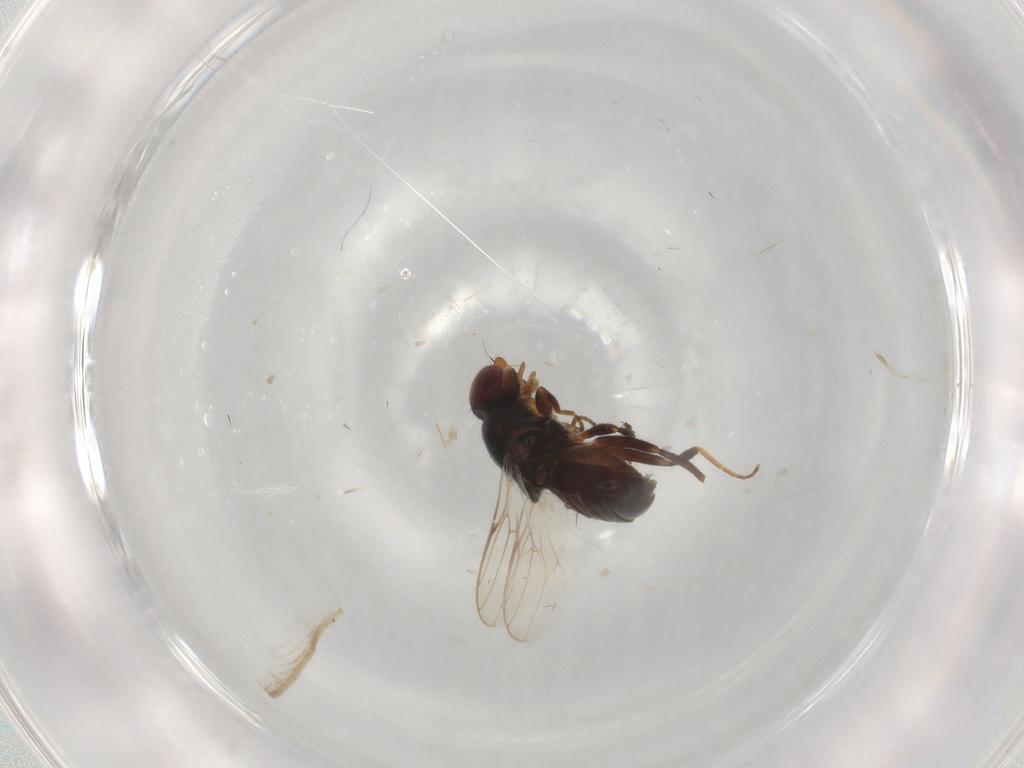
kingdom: Animalia
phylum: Arthropoda
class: Insecta
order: Diptera
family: Chloropidae
